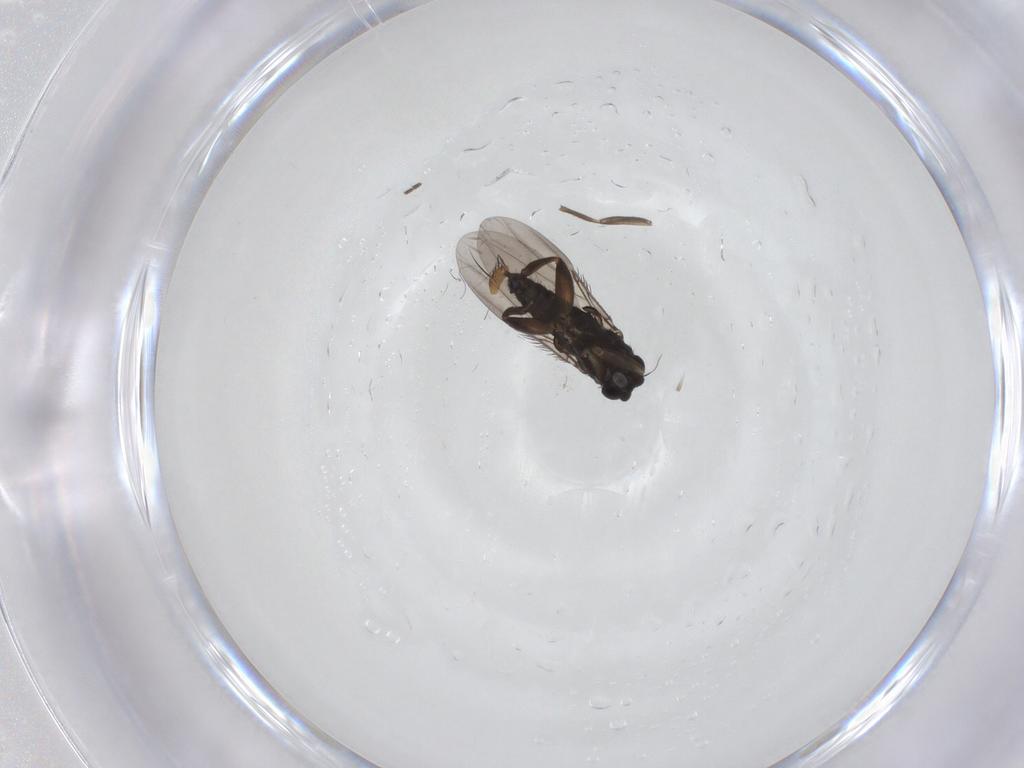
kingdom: Animalia
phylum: Arthropoda
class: Insecta
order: Diptera
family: Phoridae
